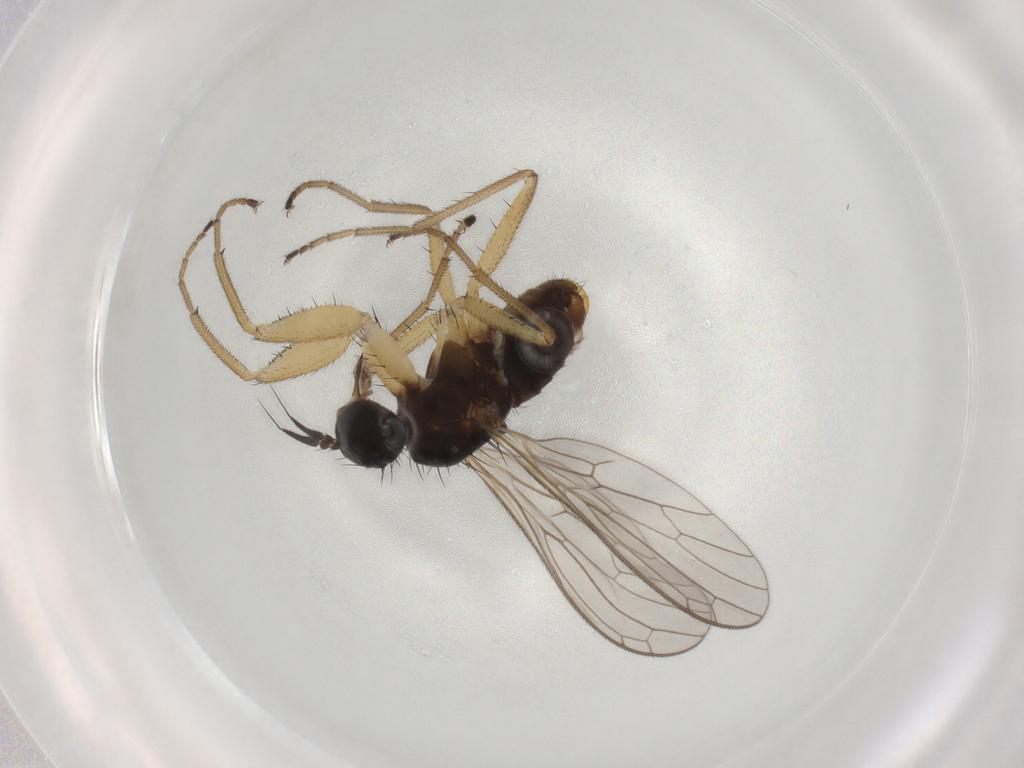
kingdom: Animalia
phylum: Arthropoda
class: Insecta
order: Diptera
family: Empididae
